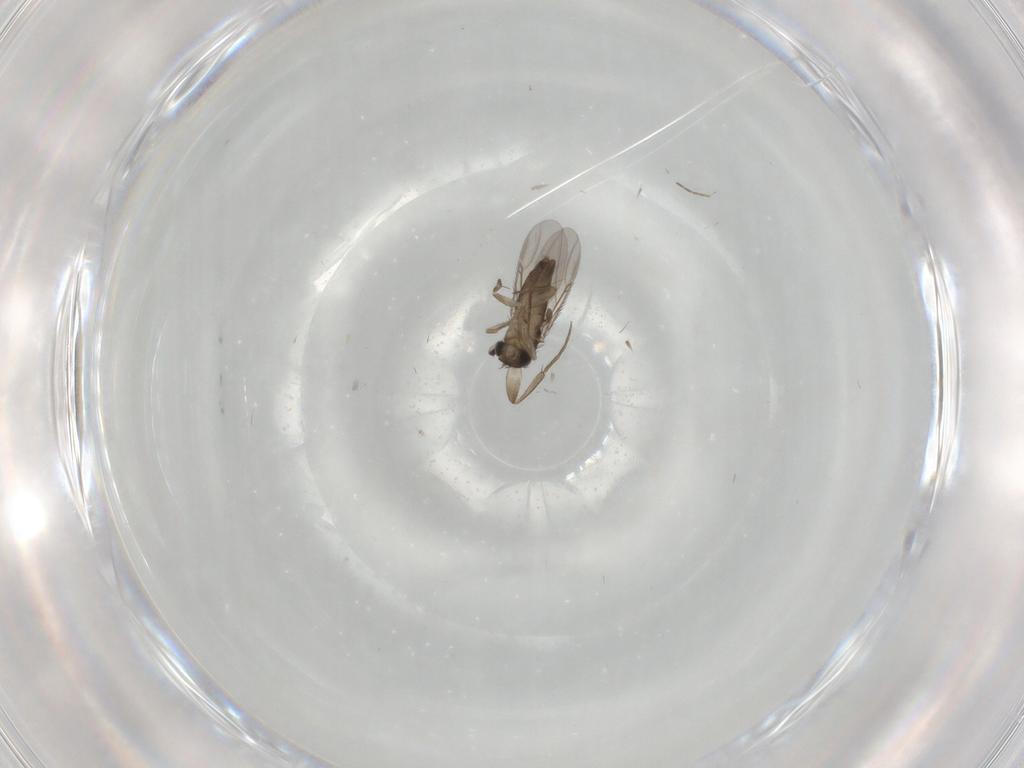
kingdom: Animalia
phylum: Arthropoda
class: Insecta
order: Diptera
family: Phoridae
